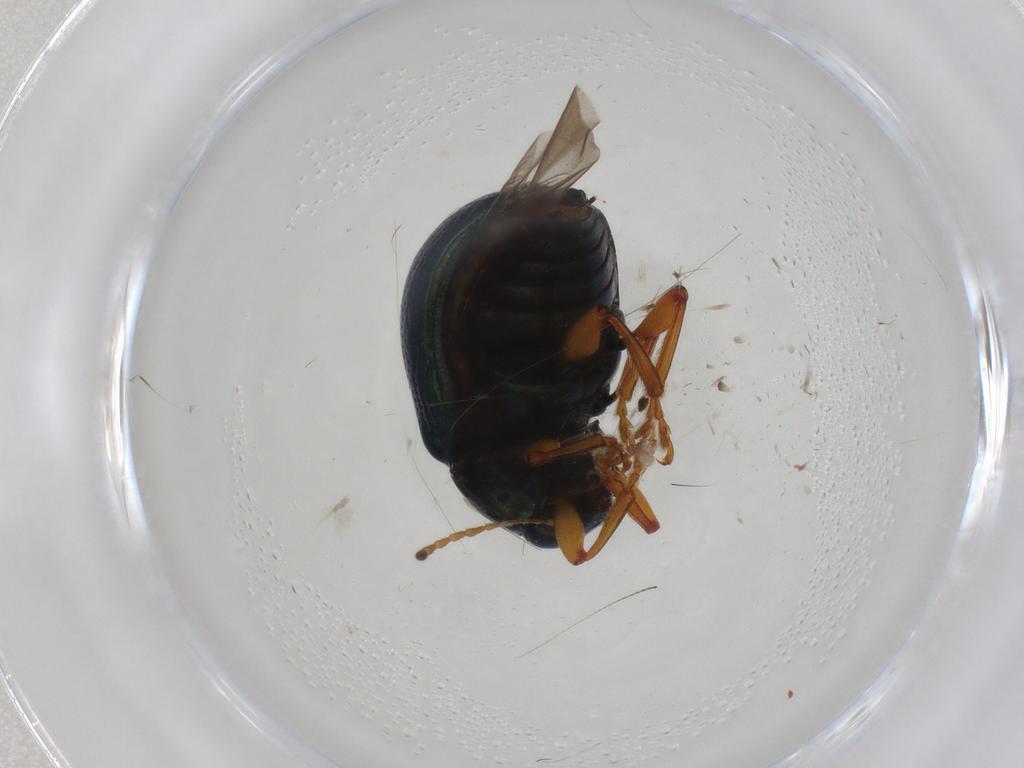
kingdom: Animalia
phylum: Arthropoda
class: Insecta
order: Coleoptera
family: Chrysomelidae
